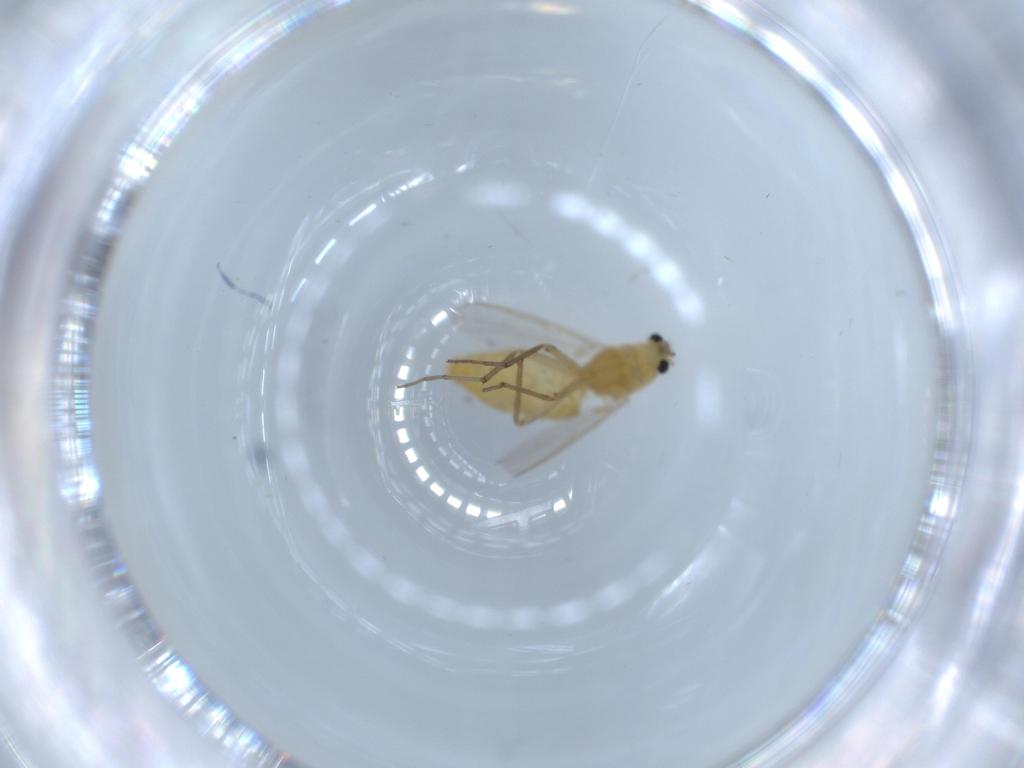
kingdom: Animalia
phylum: Arthropoda
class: Insecta
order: Diptera
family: Chironomidae
